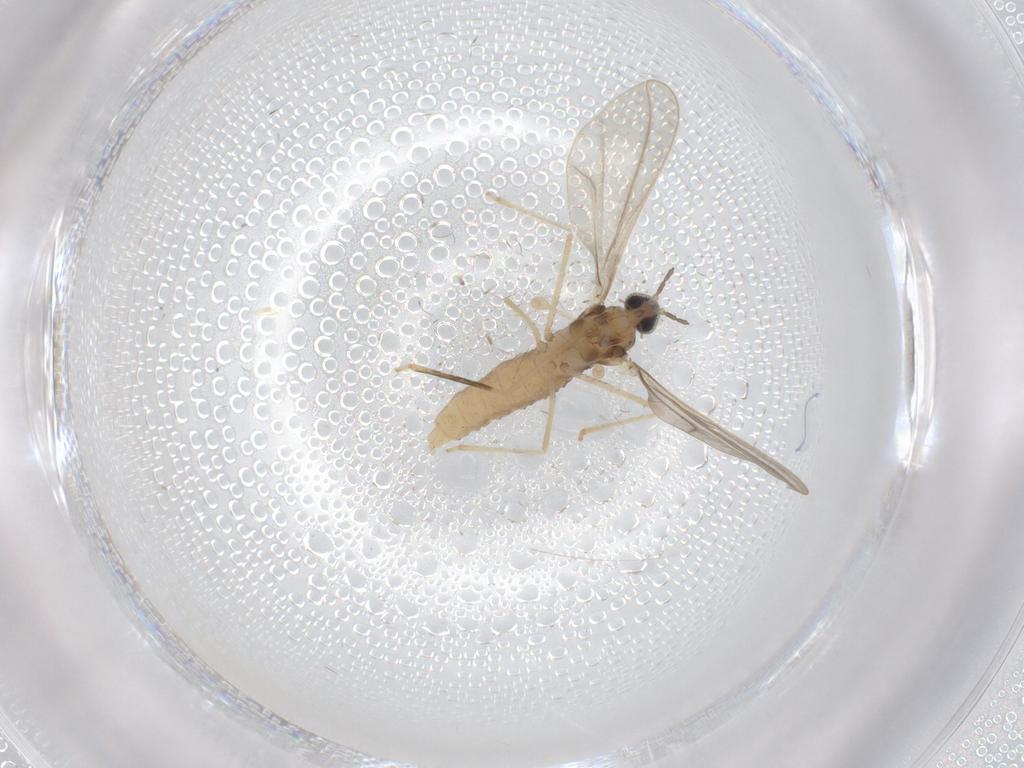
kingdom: Animalia
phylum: Arthropoda
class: Insecta
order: Diptera
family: Cecidomyiidae
